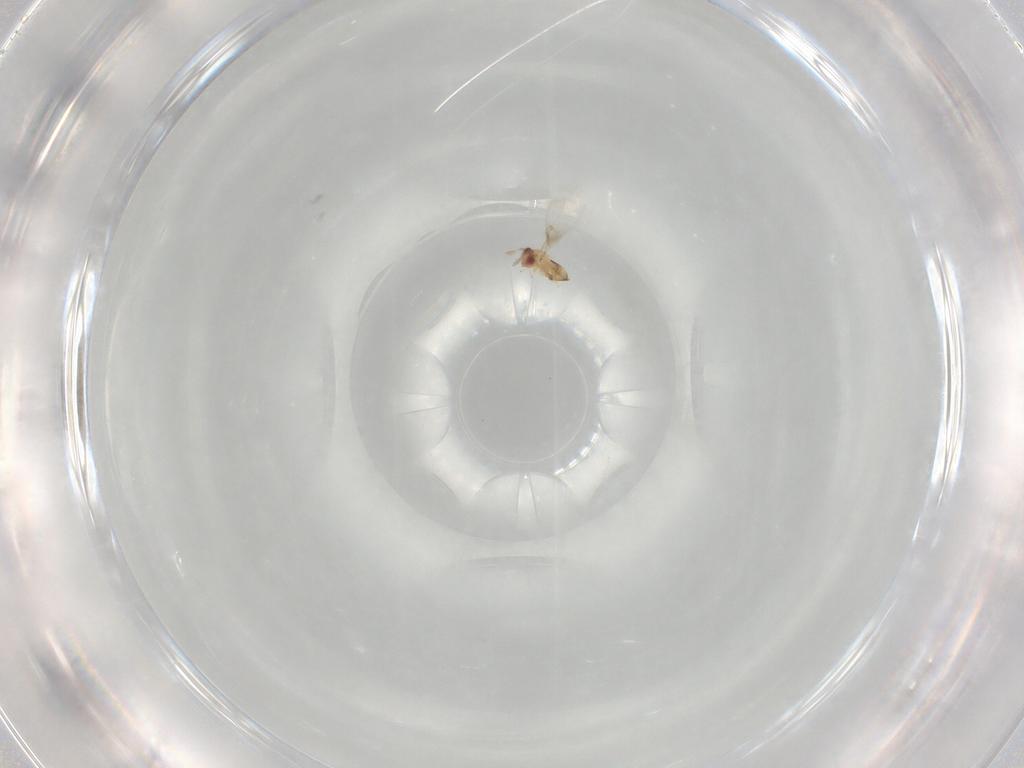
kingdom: Animalia
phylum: Arthropoda
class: Insecta
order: Hymenoptera
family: Trichogrammatidae
